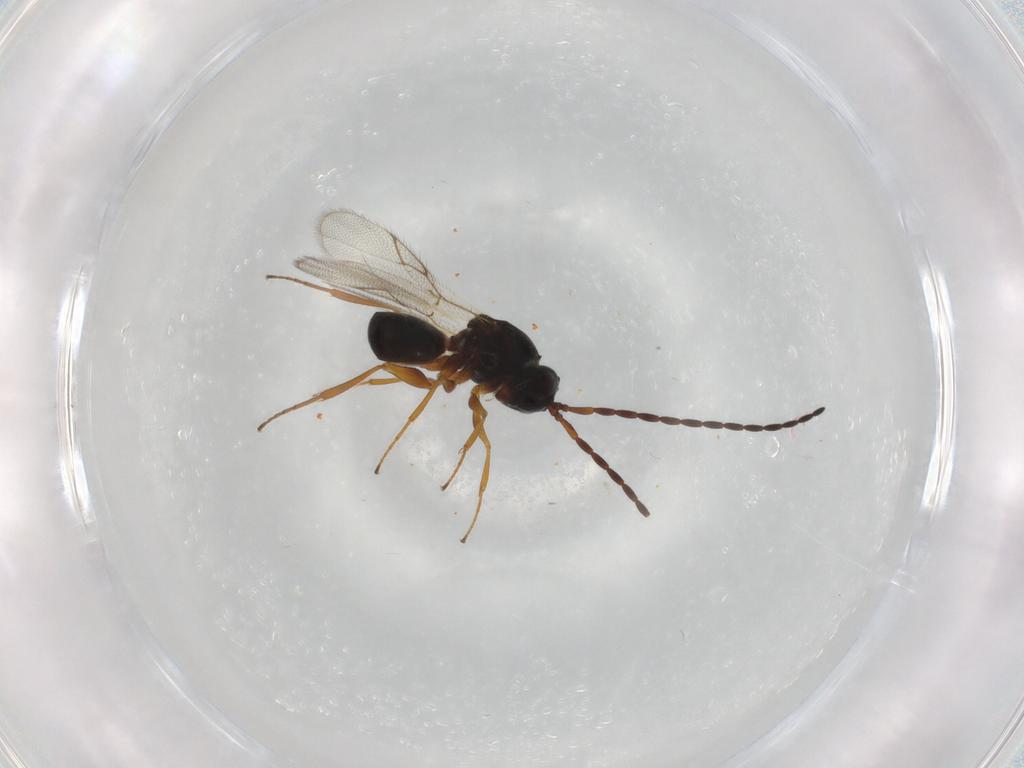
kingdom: Animalia
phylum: Arthropoda
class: Insecta
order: Hymenoptera
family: Figitidae
